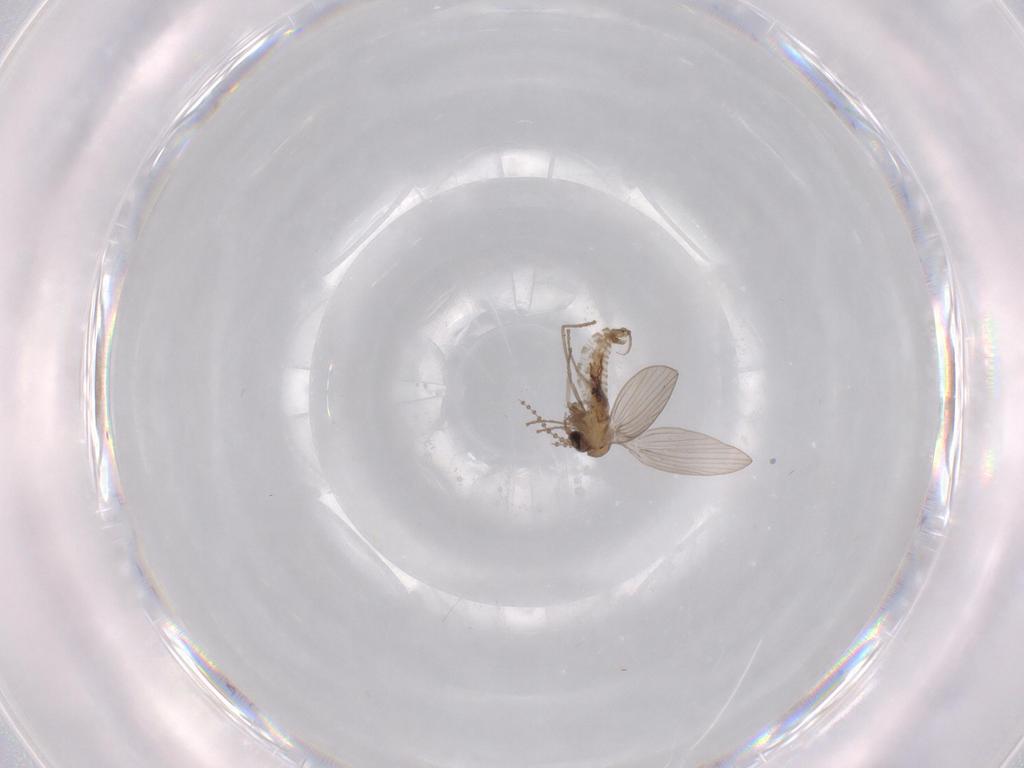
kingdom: Animalia
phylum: Arthropoda
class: Insecta
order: Diptera
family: Psychodidae
